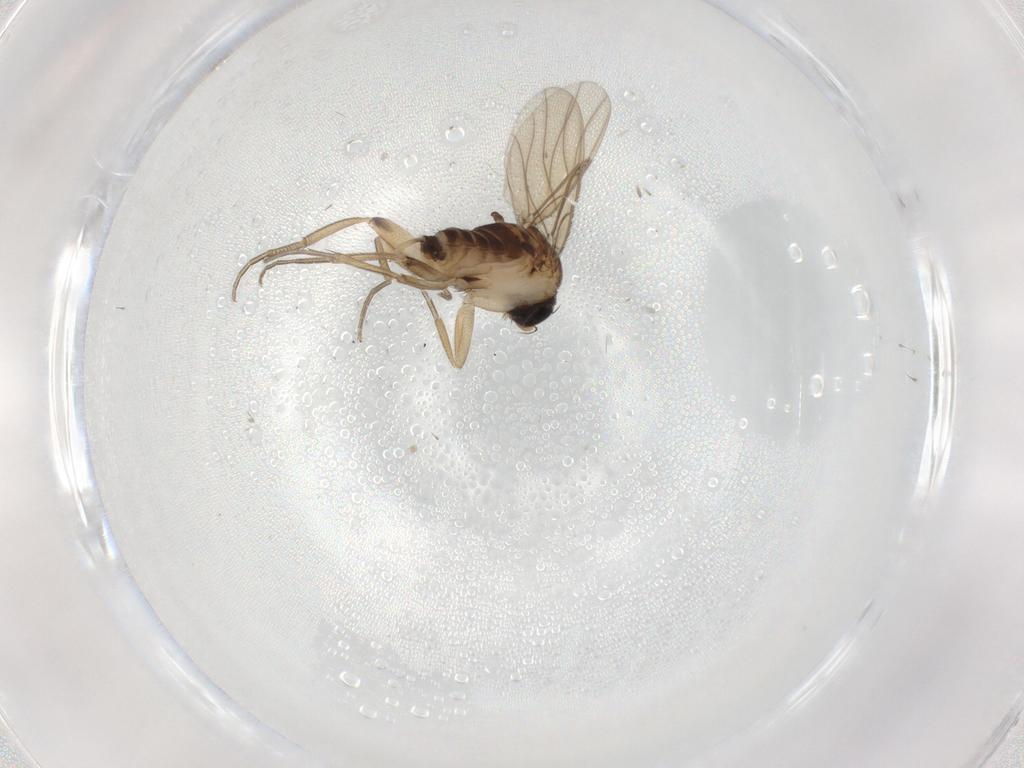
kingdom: Animalia
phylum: Arthropoda
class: Insecta
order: Diptera
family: Phoridae
